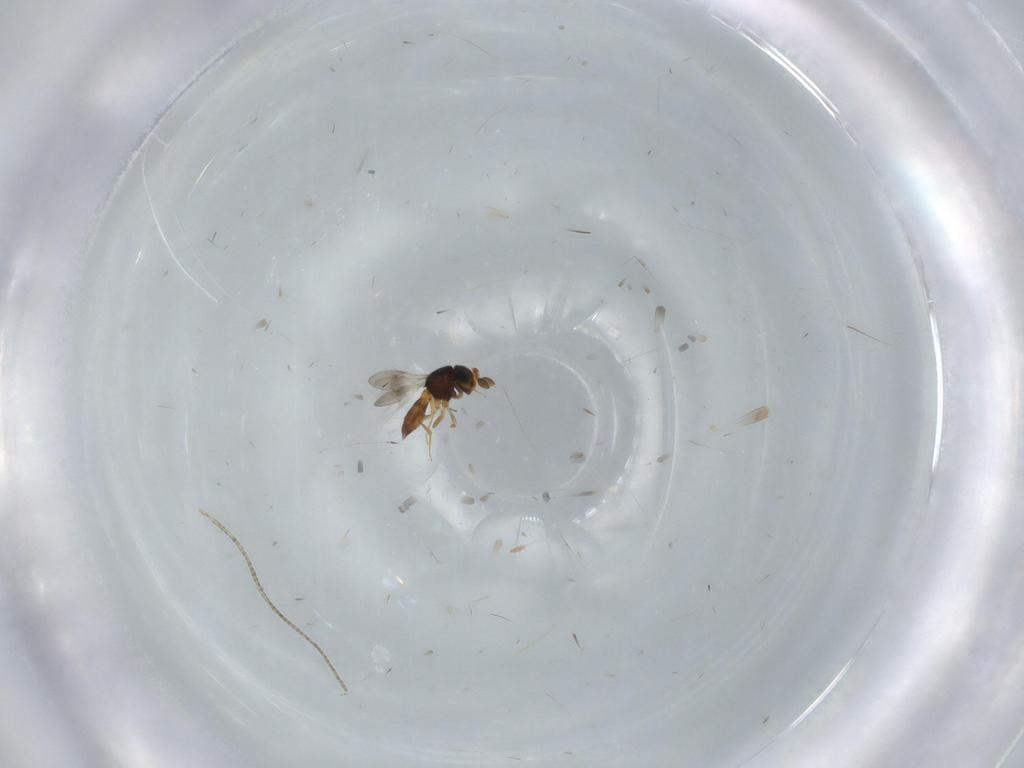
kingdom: Animalia
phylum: Arthropoda
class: Insecta
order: Hymenoptera
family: Scelionidae
